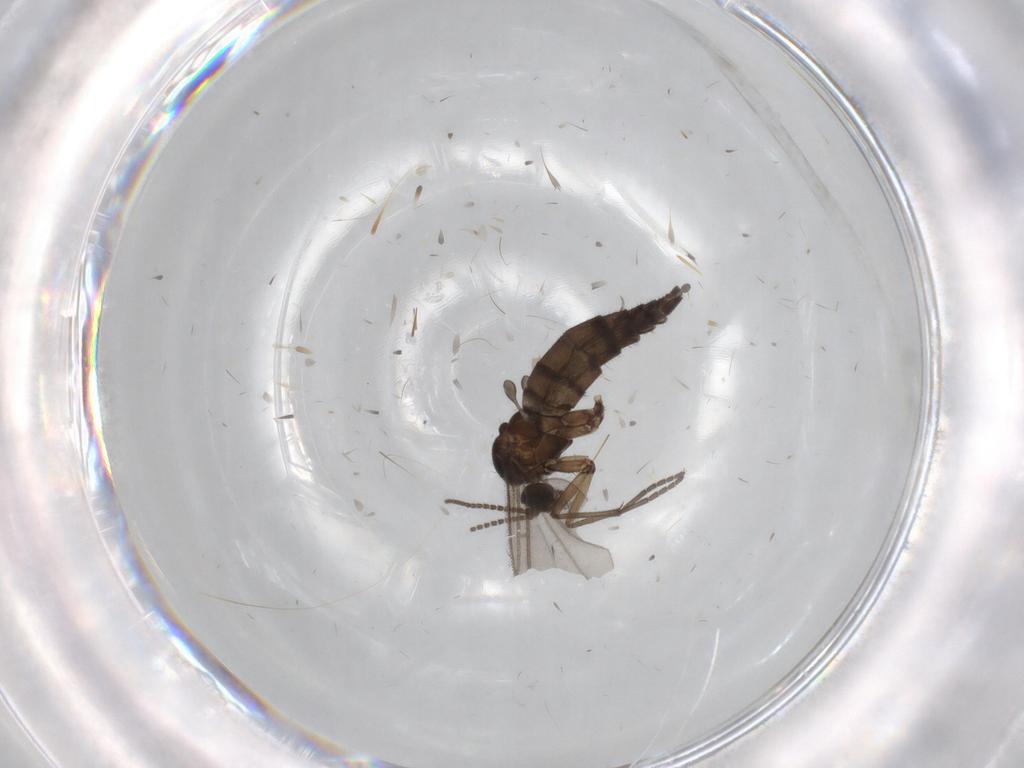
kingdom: Animalia
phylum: Arthropoda
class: Insecta
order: Diptera
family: Sciaridae
